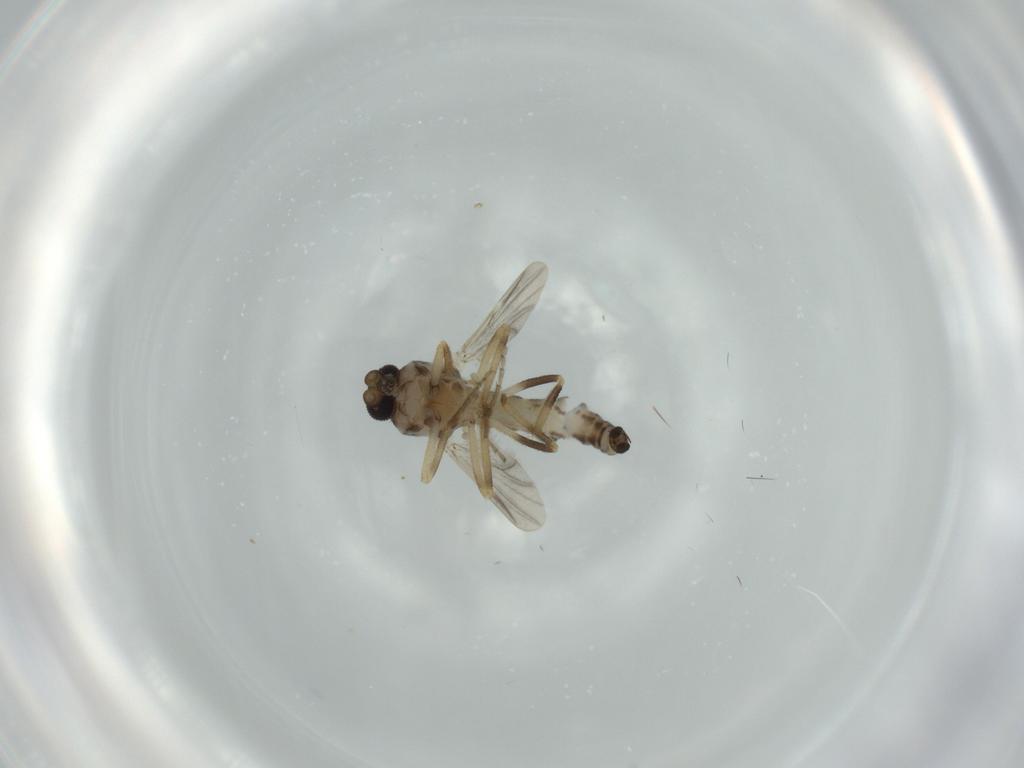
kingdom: Animalia
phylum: Arthropoda
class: Insecta
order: Diptera
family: Ceratopogonidae
